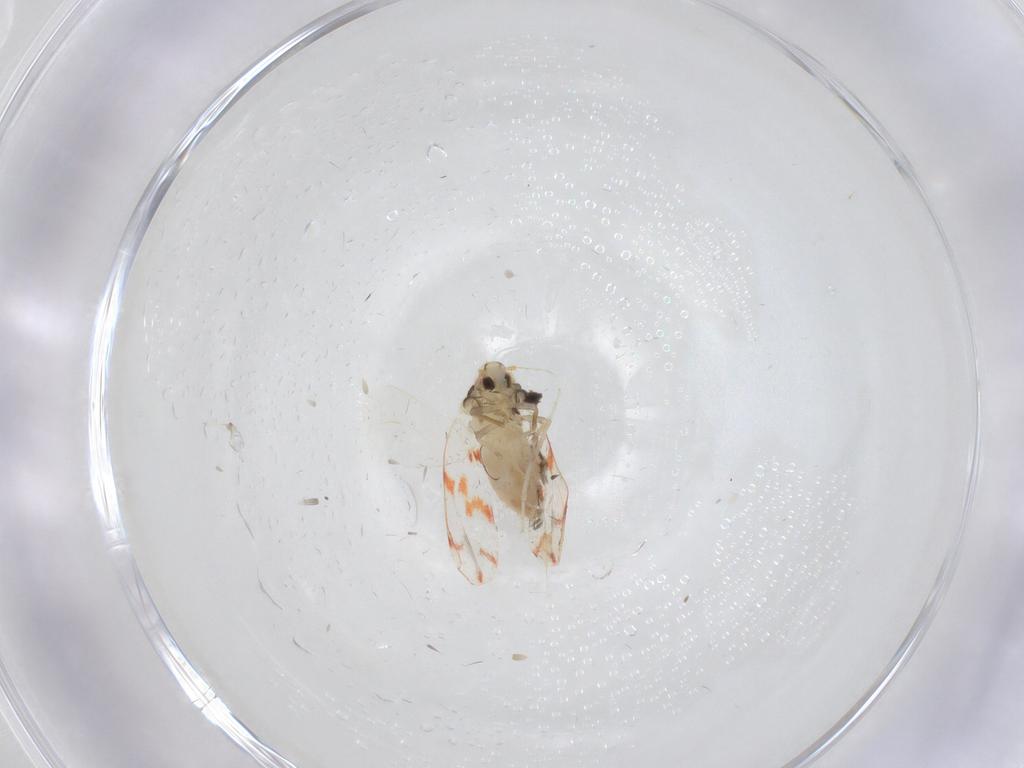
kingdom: Animalia
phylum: Arthropoda
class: Insecta
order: Hemiptera
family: Aleyrodidae
